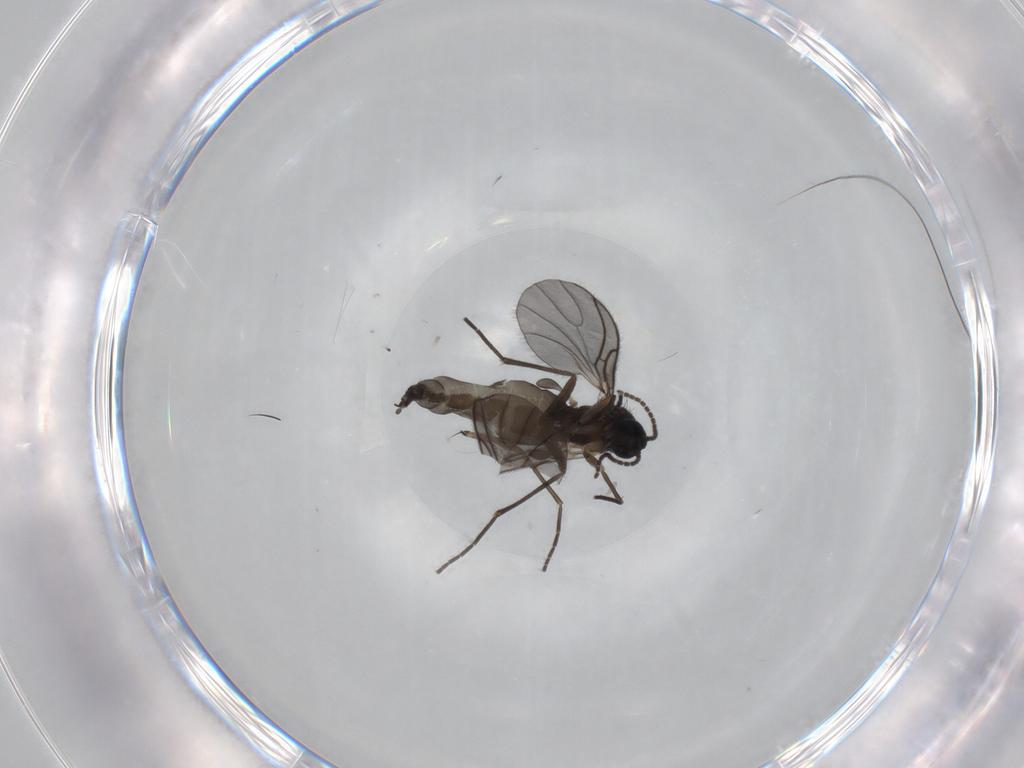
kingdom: Animalia
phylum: Arthropoda
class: Insecta
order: Diptera
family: Sciaridae
